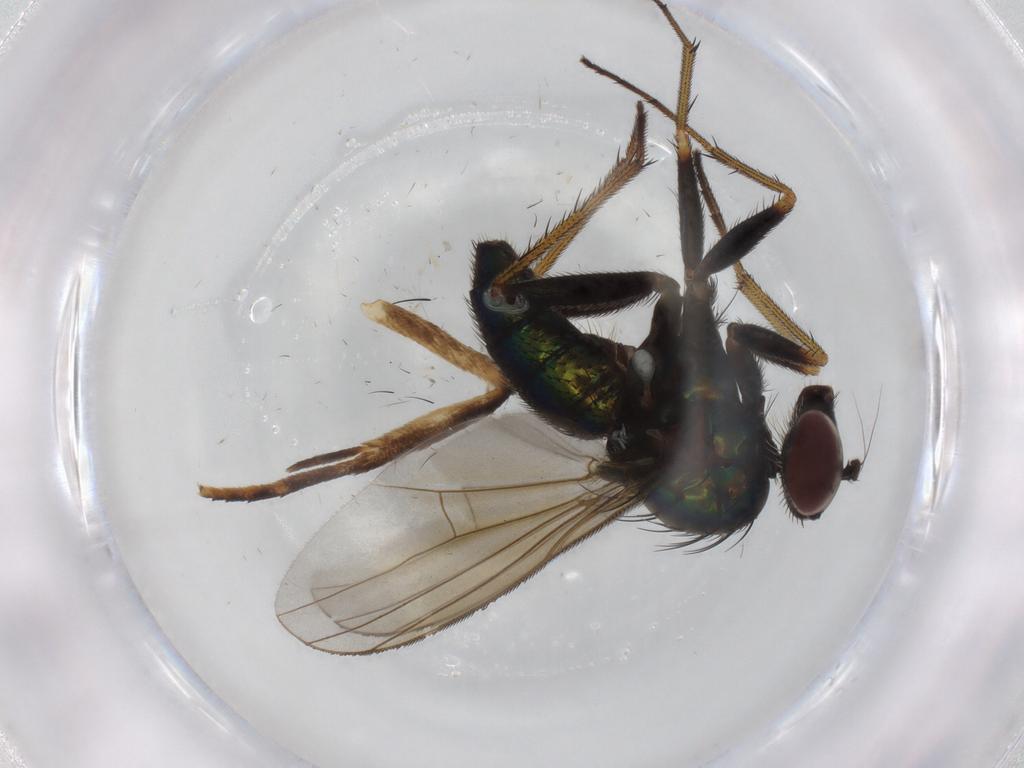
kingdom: Animalia
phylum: Arthropoda
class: Insecta
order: Diptera
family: Dolichopodidae
